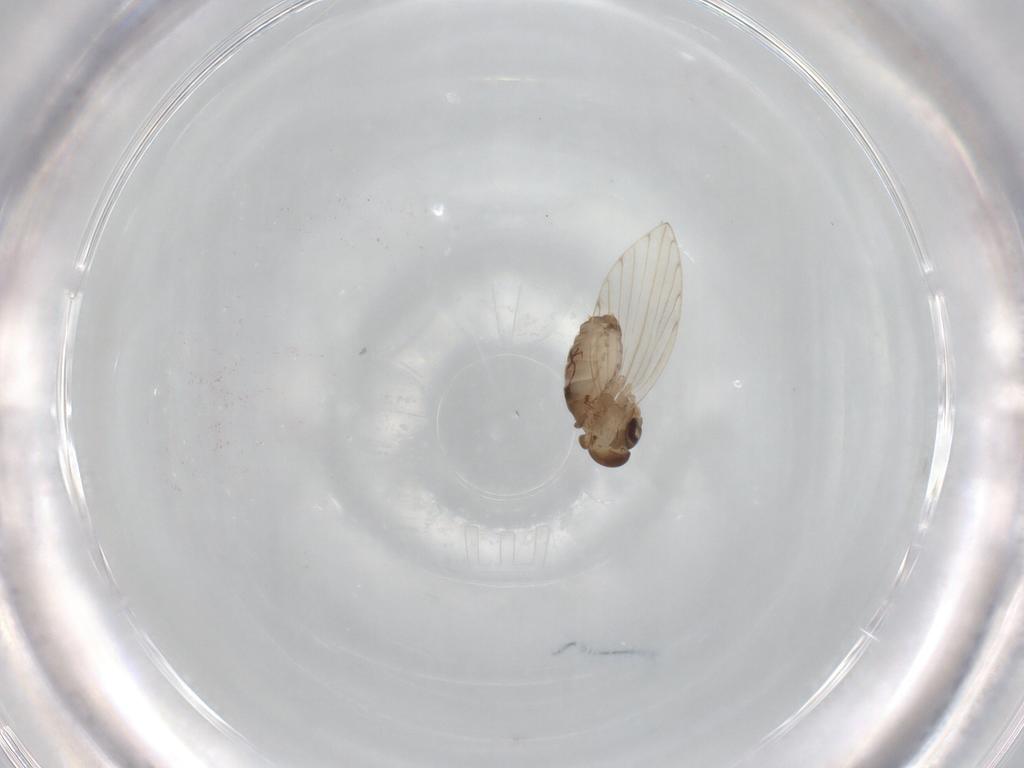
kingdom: Animalia
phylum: Arthropoda
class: Insecta
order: Diptera
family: Psychodidae
